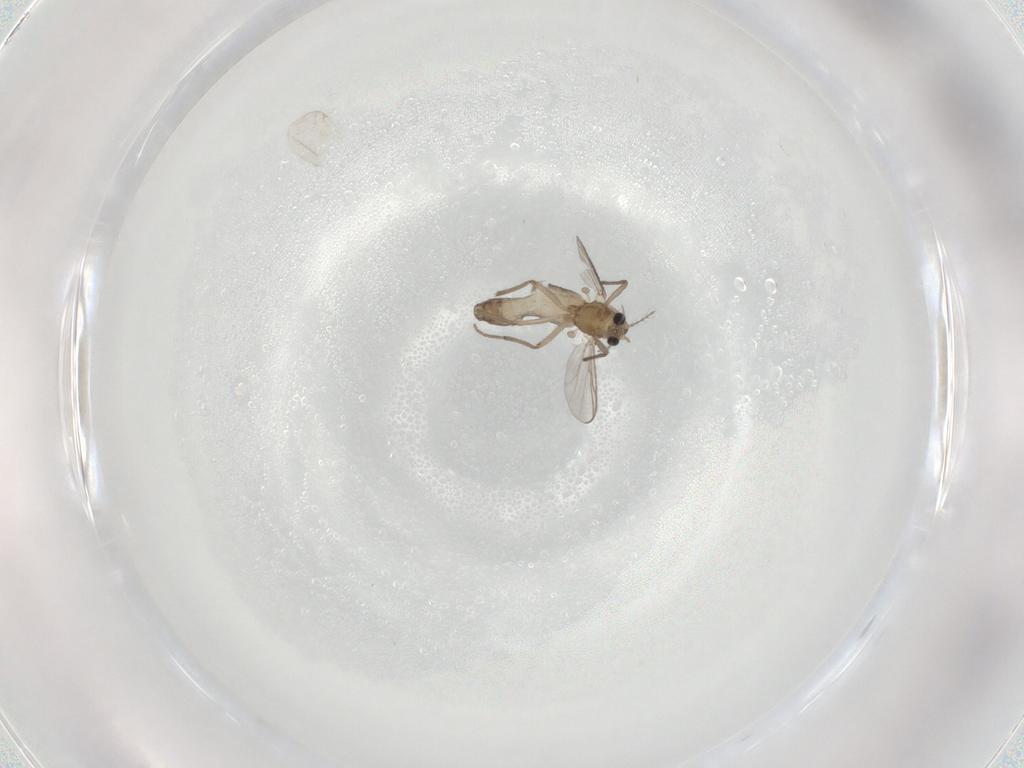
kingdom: Animalia
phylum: Arthropoda
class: Insecta
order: Diptera
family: Chironomidae
